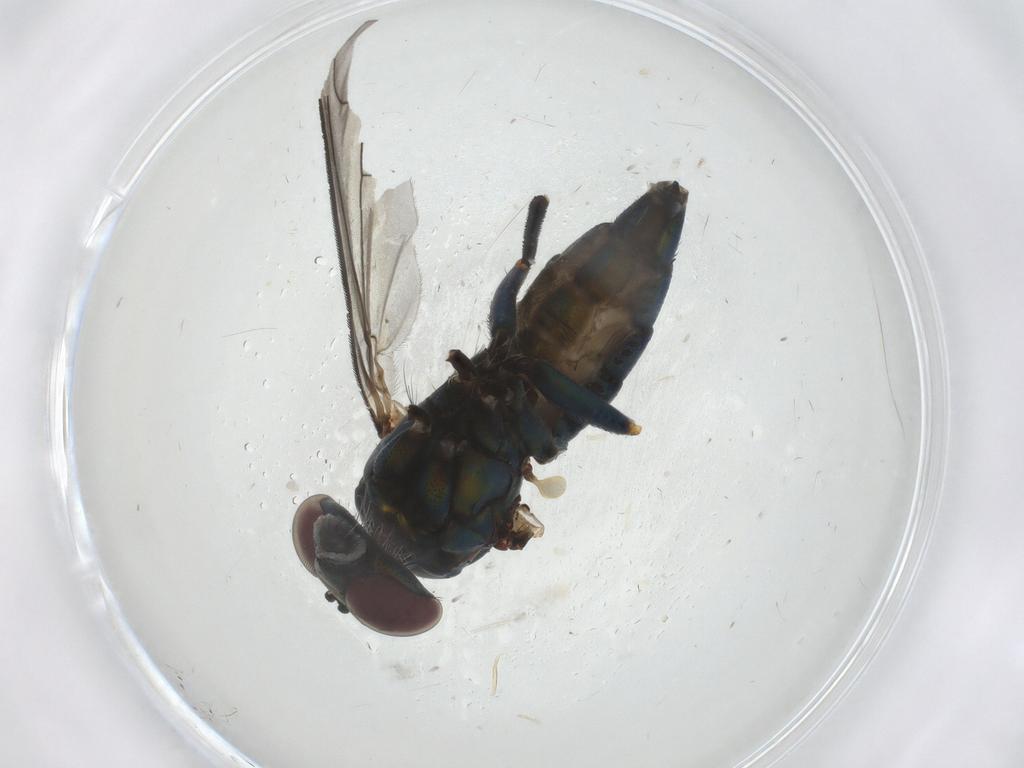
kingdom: Animalia
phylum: Arthropoda
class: Insecta
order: Diptera
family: Dolichopodidae
